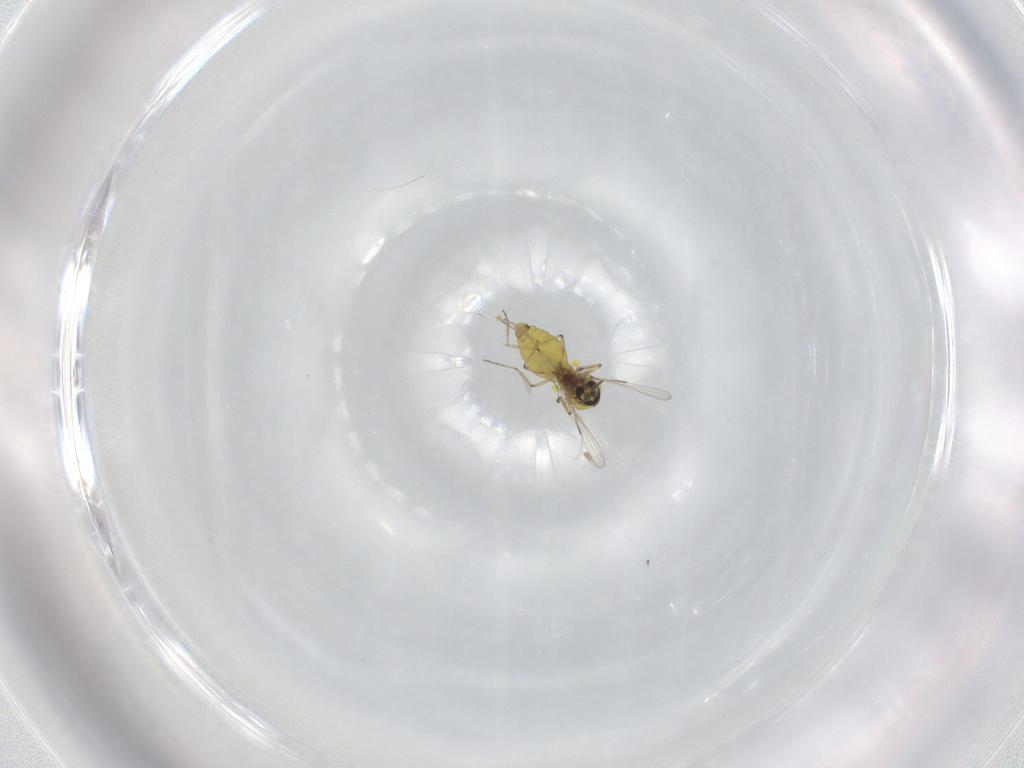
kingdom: Animalia
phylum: Arthropoda
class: Insecta
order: Diptera
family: Ceratopogonidae
